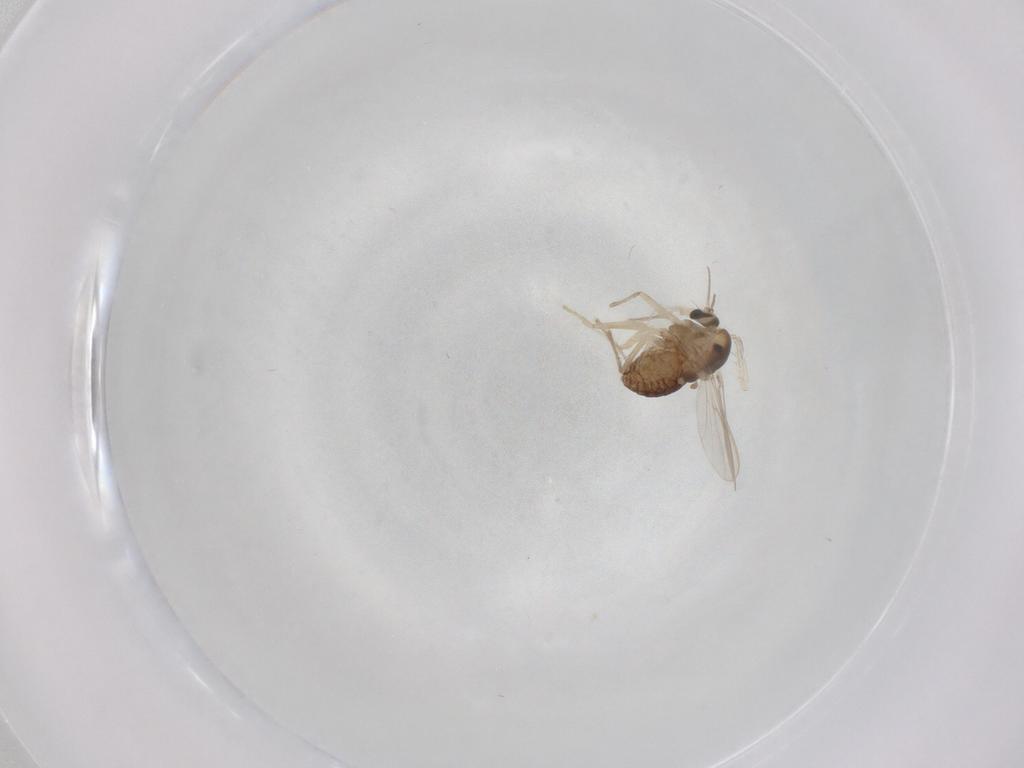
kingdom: Animalia
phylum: Arthropoda
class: Insecta
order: Diptera
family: Chironomidae
